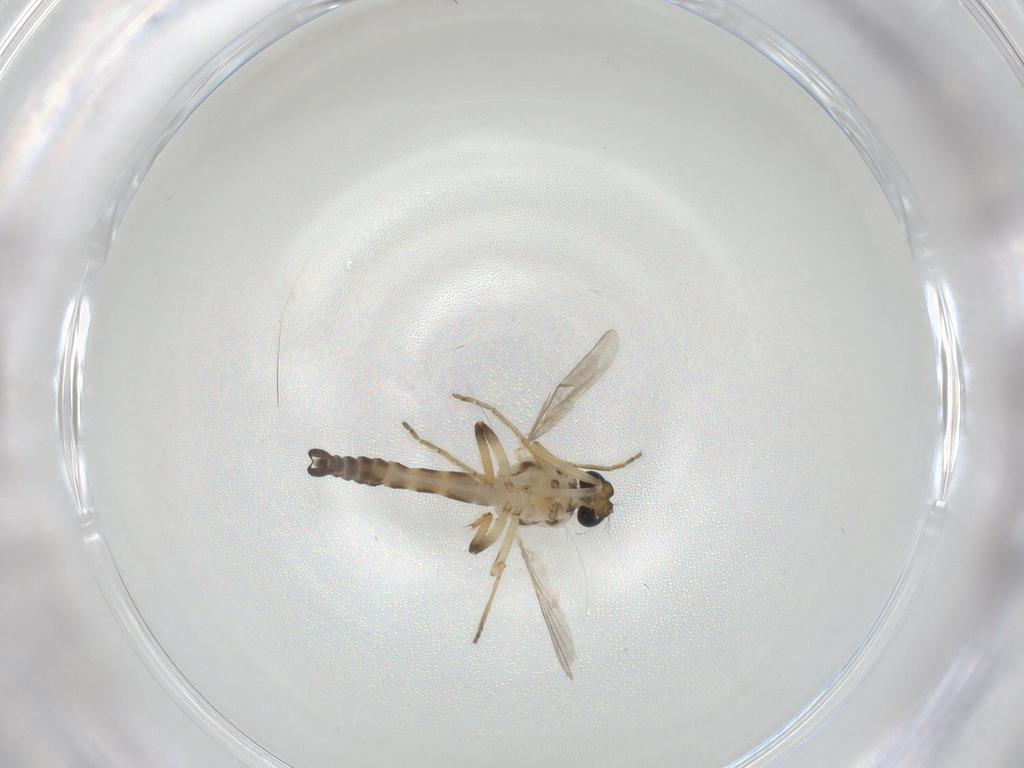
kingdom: Animalia
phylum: Arthropoda
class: Insecta
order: Diptera
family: Ceratopogonidae
